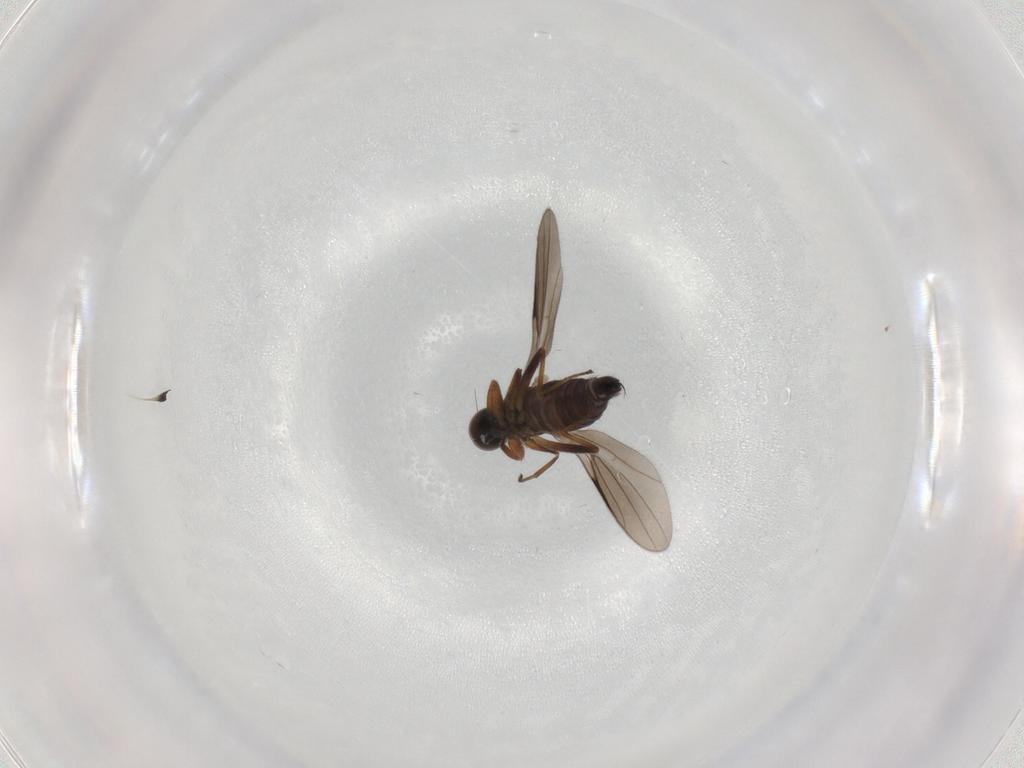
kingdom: Animalia
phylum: Arthropoda
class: Insecta
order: Diptera
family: Hybotidae
